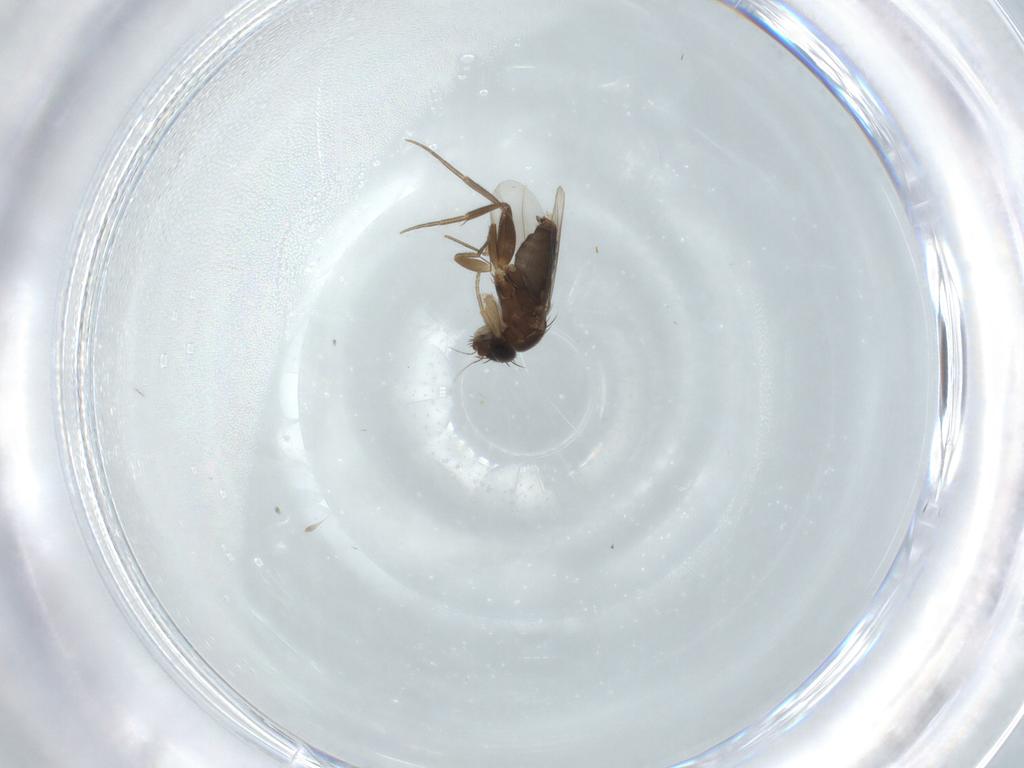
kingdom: Animalia
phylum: Arthropoda
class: Insecta
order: Diptera
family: Phoridae
